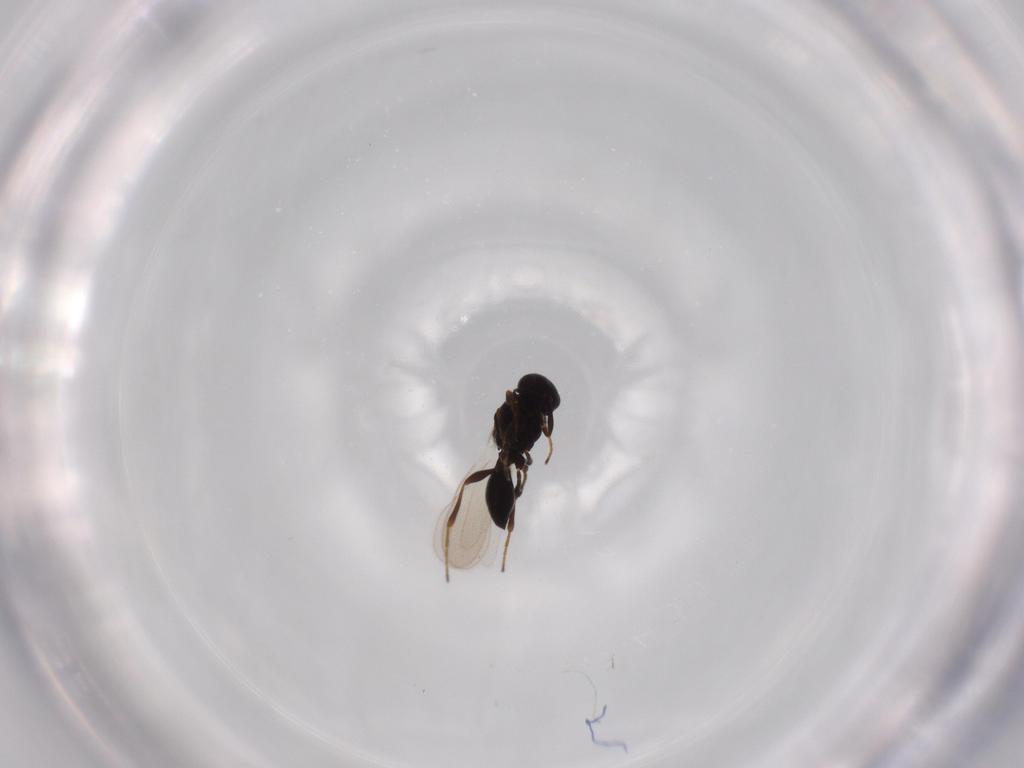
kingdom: Animalia
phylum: Arthropoda
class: Insecta
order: Hymenoptera
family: Platygastridae
